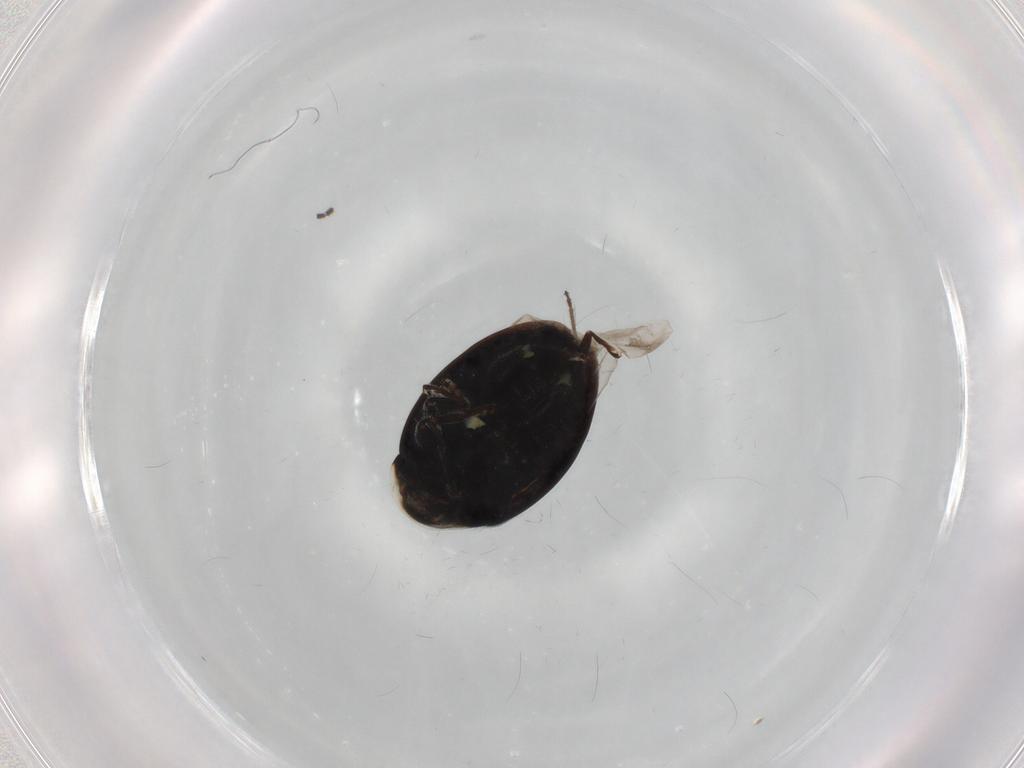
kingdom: Animalia
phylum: Arthropoda
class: Insecta
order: Coleoptera
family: Coccinellidae
